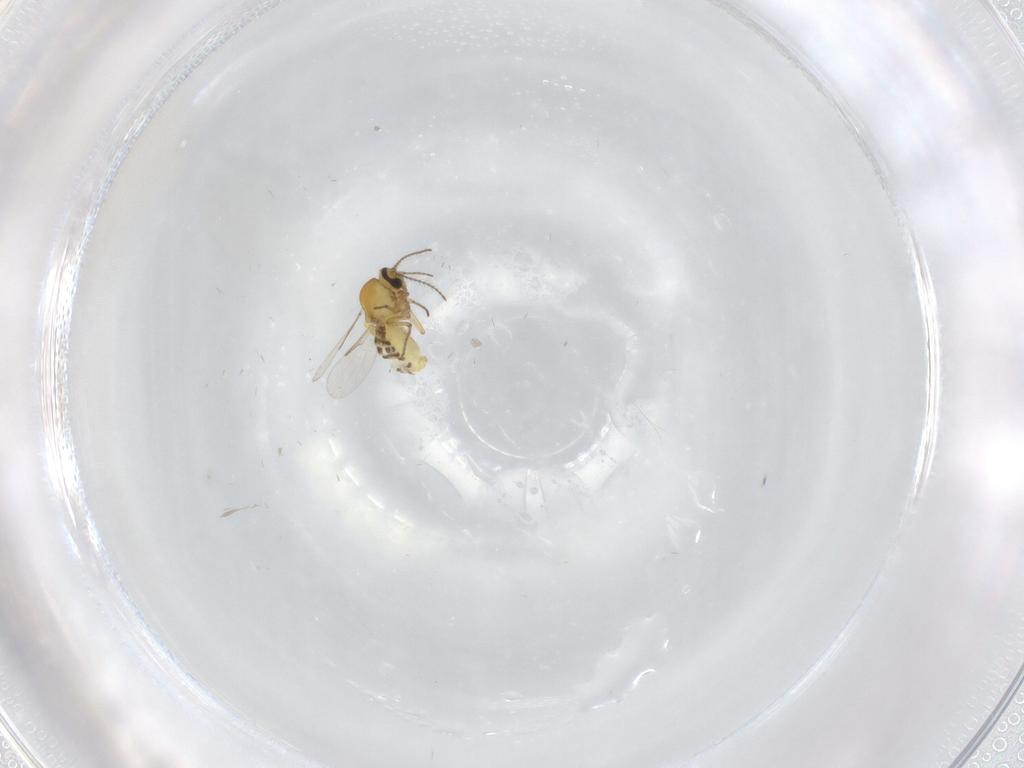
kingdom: Animalia
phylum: Arthropoda
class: Insecta
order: Diptera
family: Ceratopogonidae
